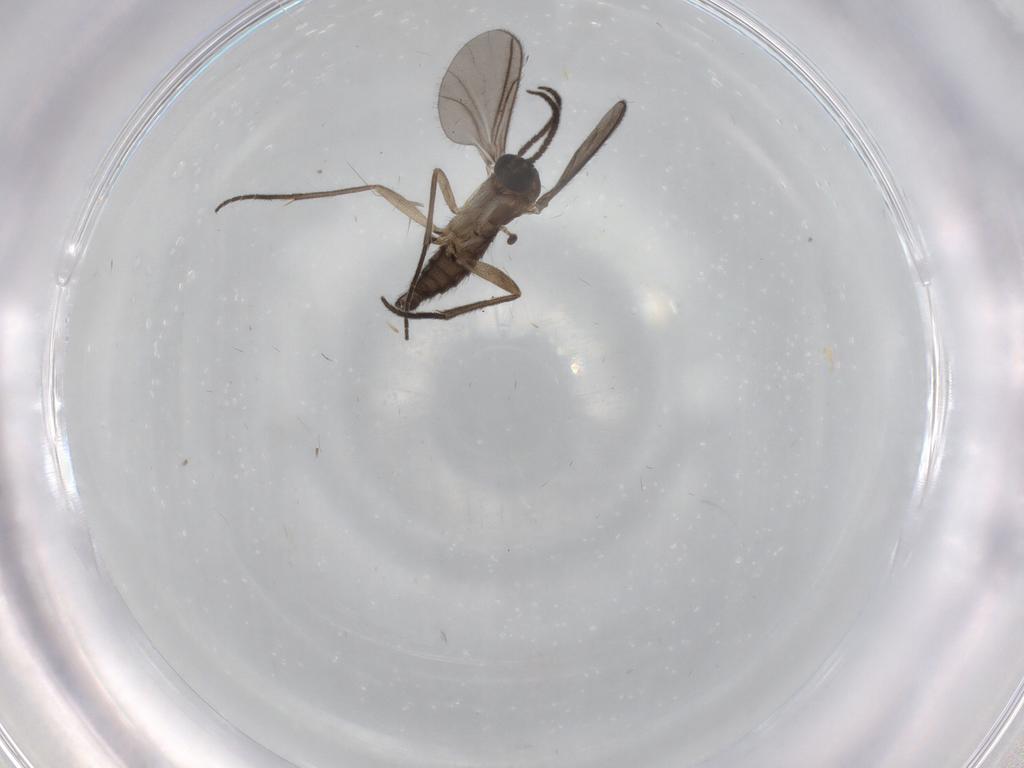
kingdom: Animalia
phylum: Arthropoda
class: Insecta
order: Diptera
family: Sciaridae
